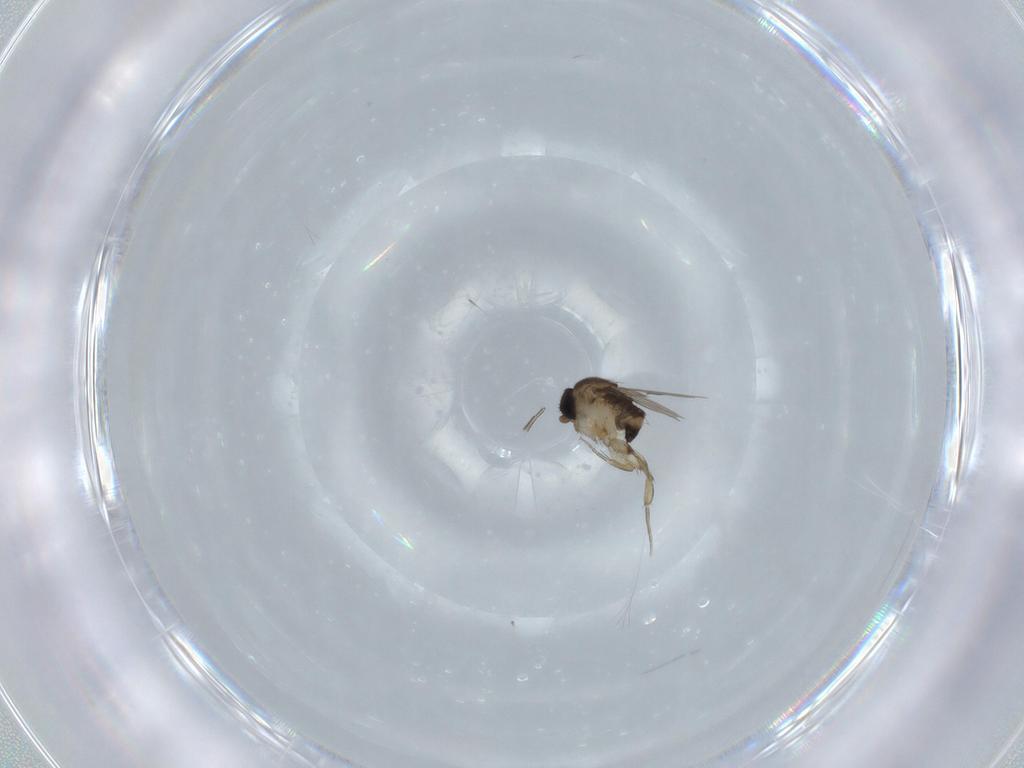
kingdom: Animalia
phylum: Arthropoda
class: Insecta
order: Diptera
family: Phoridae
